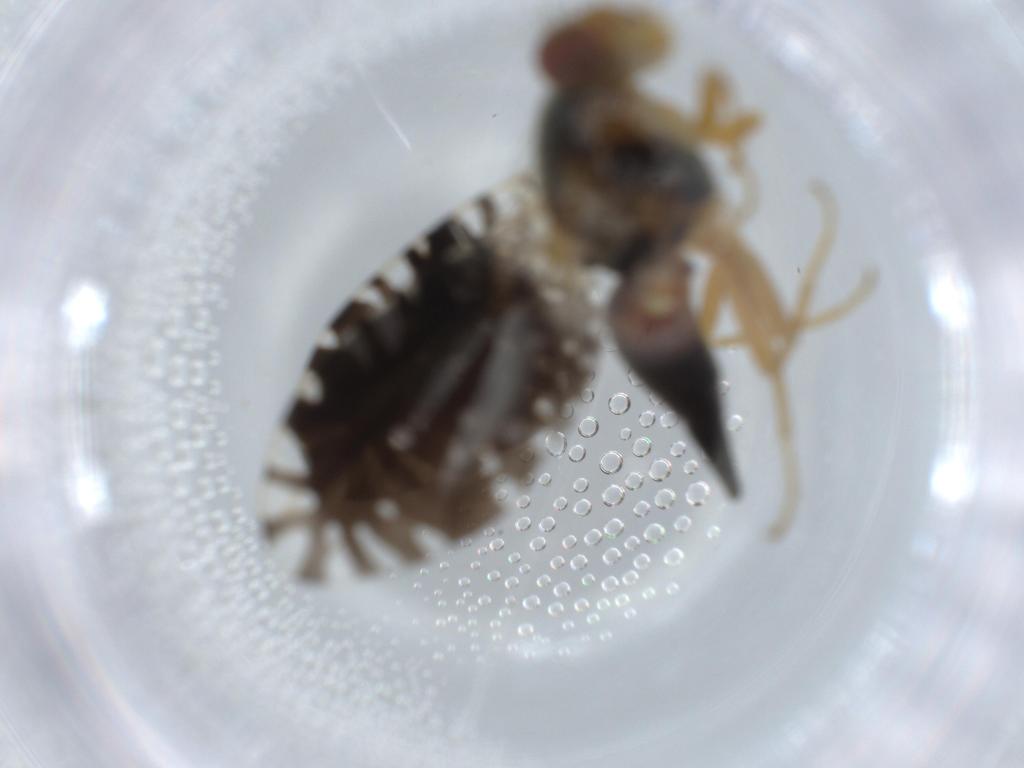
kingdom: Animalia
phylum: Arthropoda
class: Insecta
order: Diptera
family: Tephritidae
